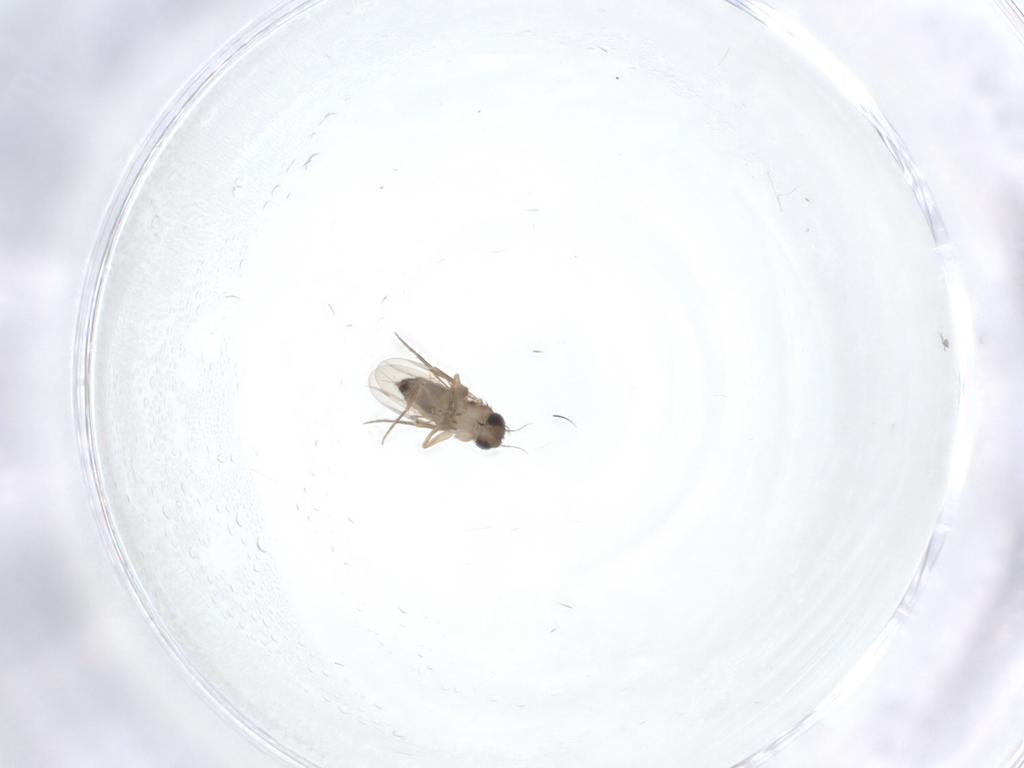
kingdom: Animalia
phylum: Arthropoda
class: Insecta
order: Diptera
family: Phoridae
